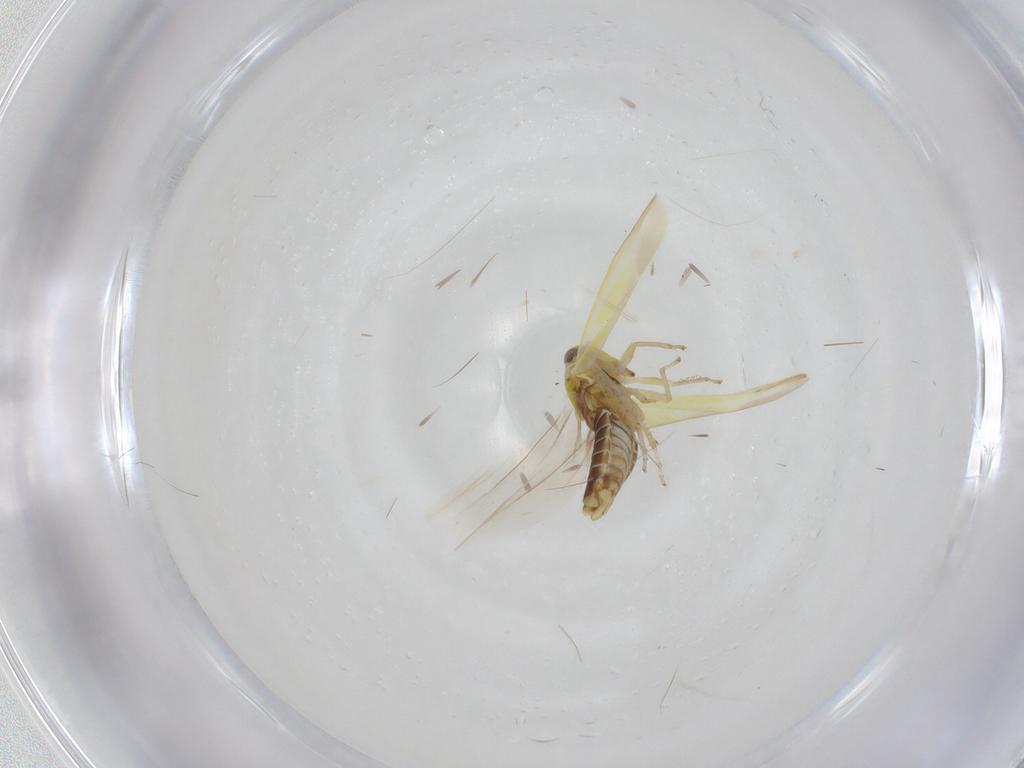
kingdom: Animalia
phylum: Arthropoda
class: Insecta
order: Hemiptera
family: Cicadellidae
